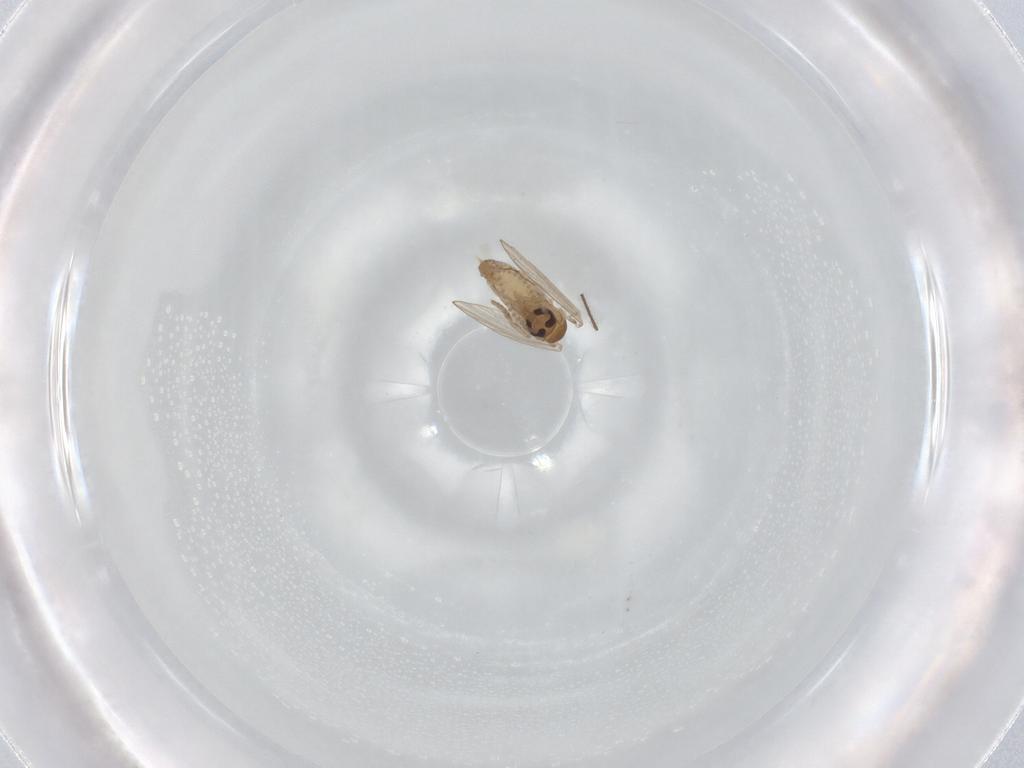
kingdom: Animalia
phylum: Arthropoda
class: Insecta
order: Diptera
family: Psychodidae
